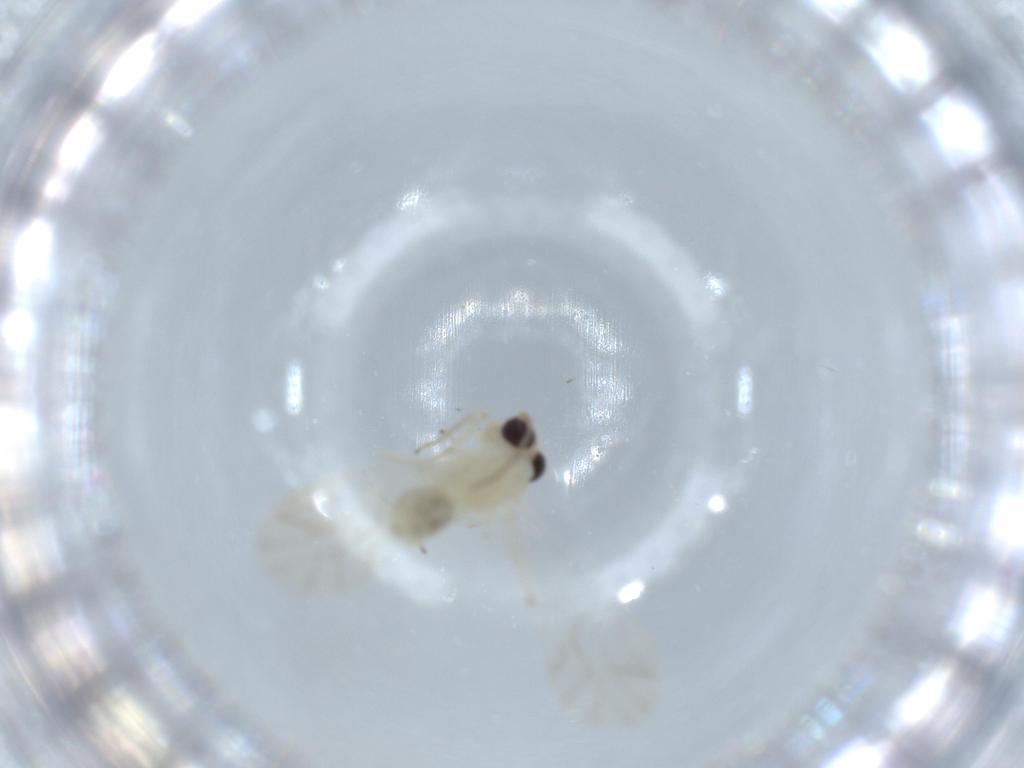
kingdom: Animalia
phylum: Arthropoda
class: Insecta
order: Psocodea
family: Caeciliusidae
